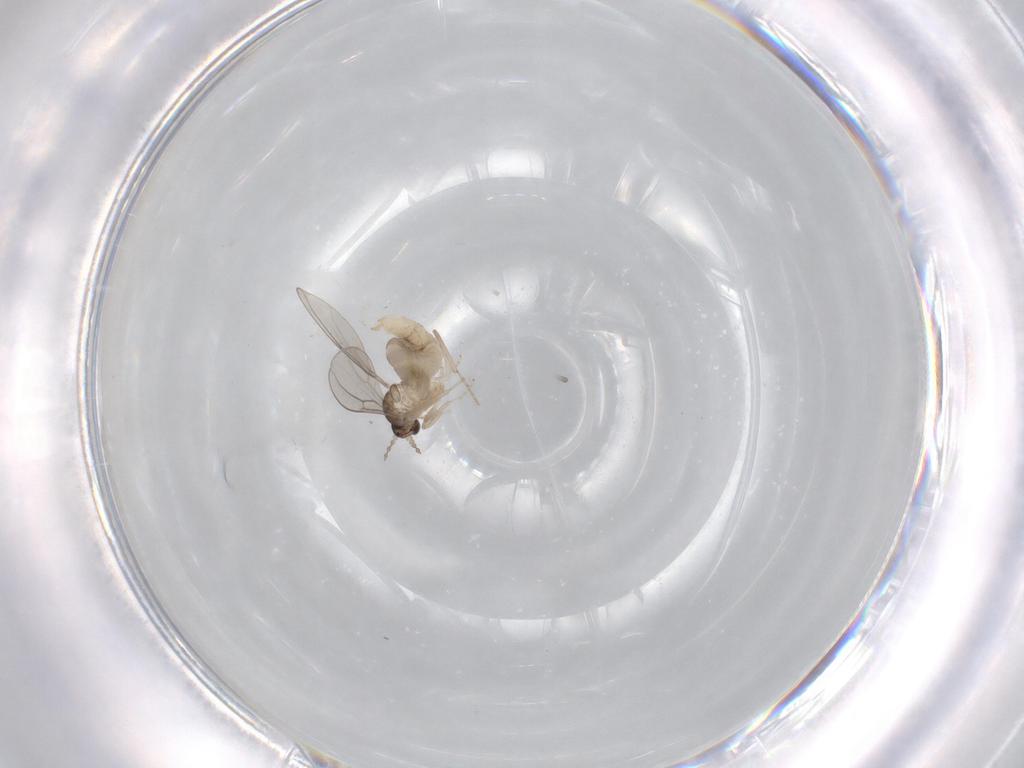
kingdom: Animalia
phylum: Arthropoda
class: Insecta
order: Diptera
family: Cecidomyiidae
